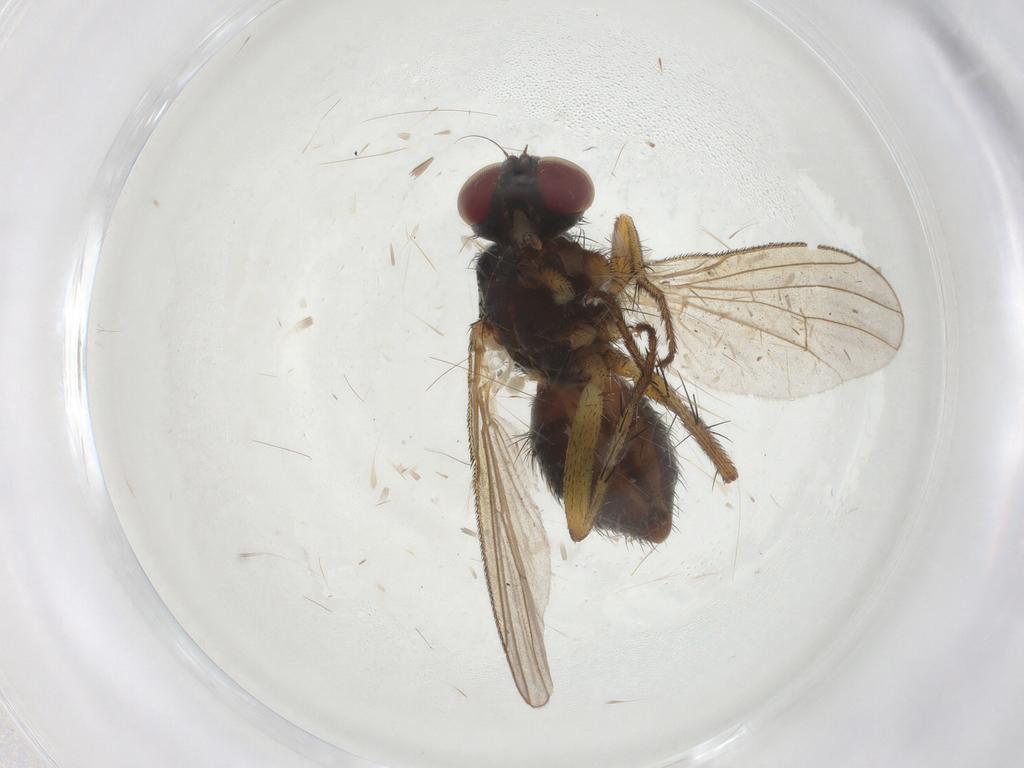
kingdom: Animalia
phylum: Arthropoda
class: Insecta
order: Diptera
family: Muscidae
